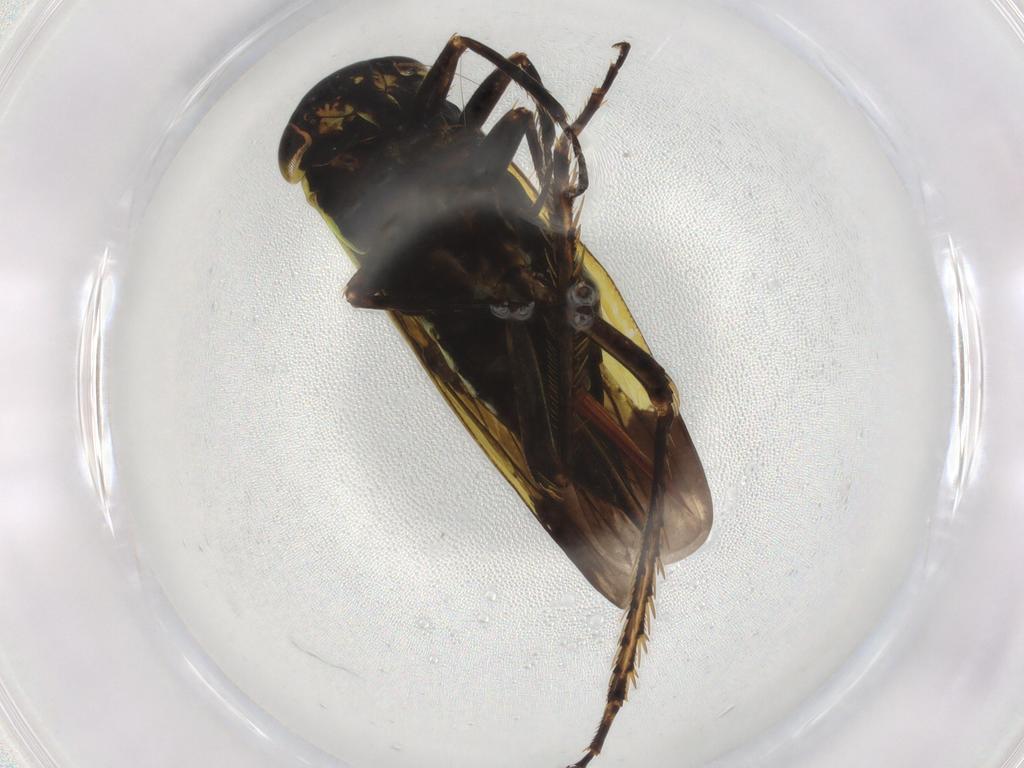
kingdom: Animalia
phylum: Arthropoda
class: Insecta
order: Hemiptera
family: Cicadellidae
